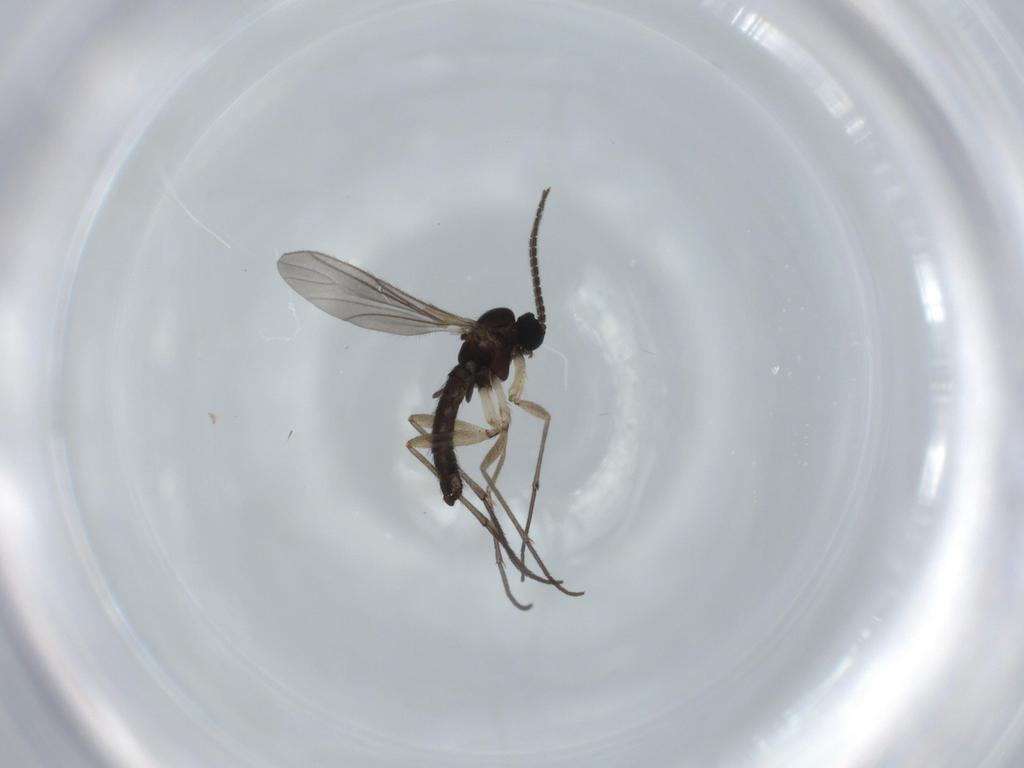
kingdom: Animalia
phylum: Arthropoda
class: Insecta
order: Diptera
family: Sciaridae
